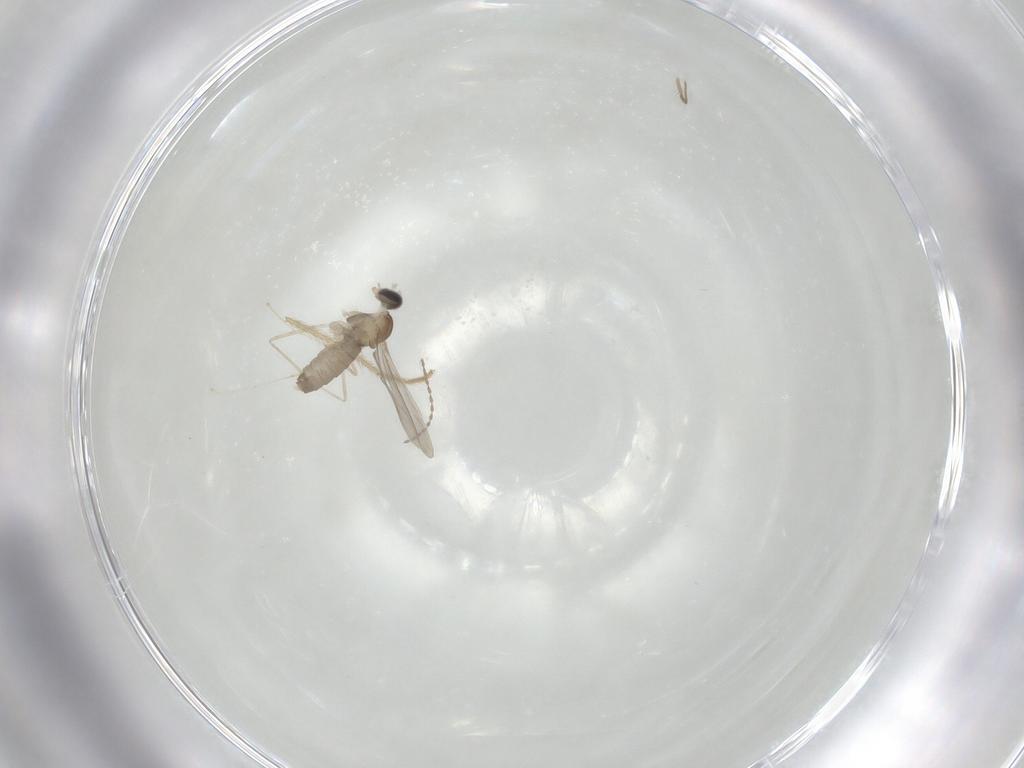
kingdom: Animalia
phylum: Arthropoda
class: Insecta
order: Diptera
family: Chironomidae
